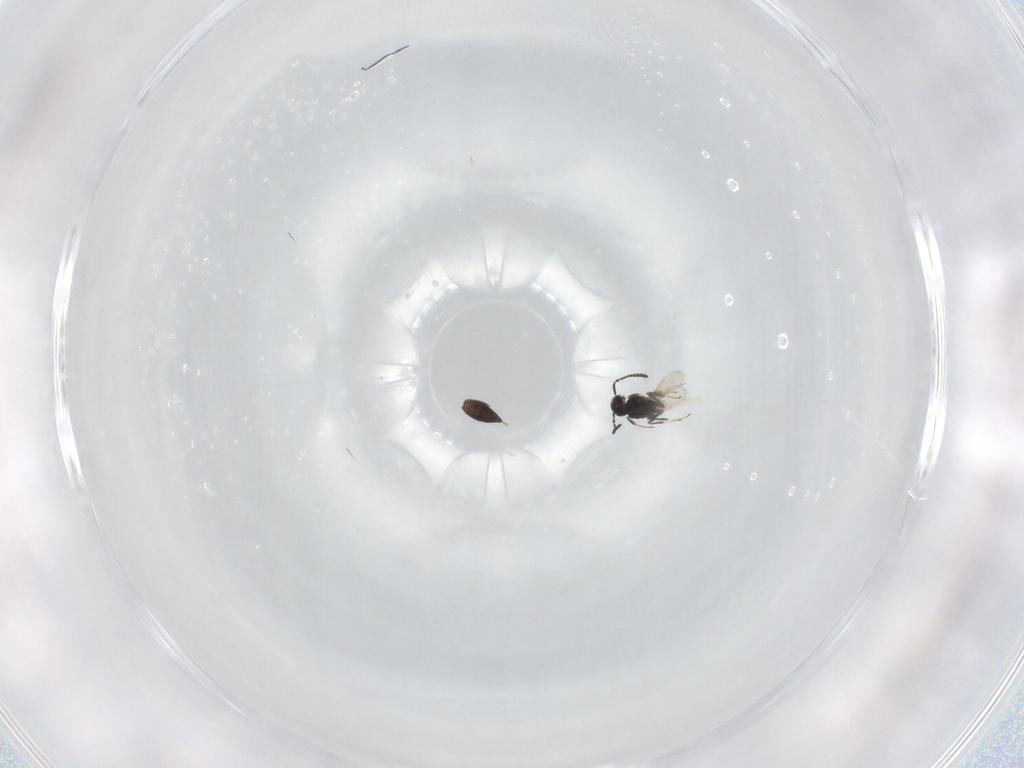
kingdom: Animalia
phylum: Arthropoda
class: Insecta
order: Hymenoptera
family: Scelionidae
